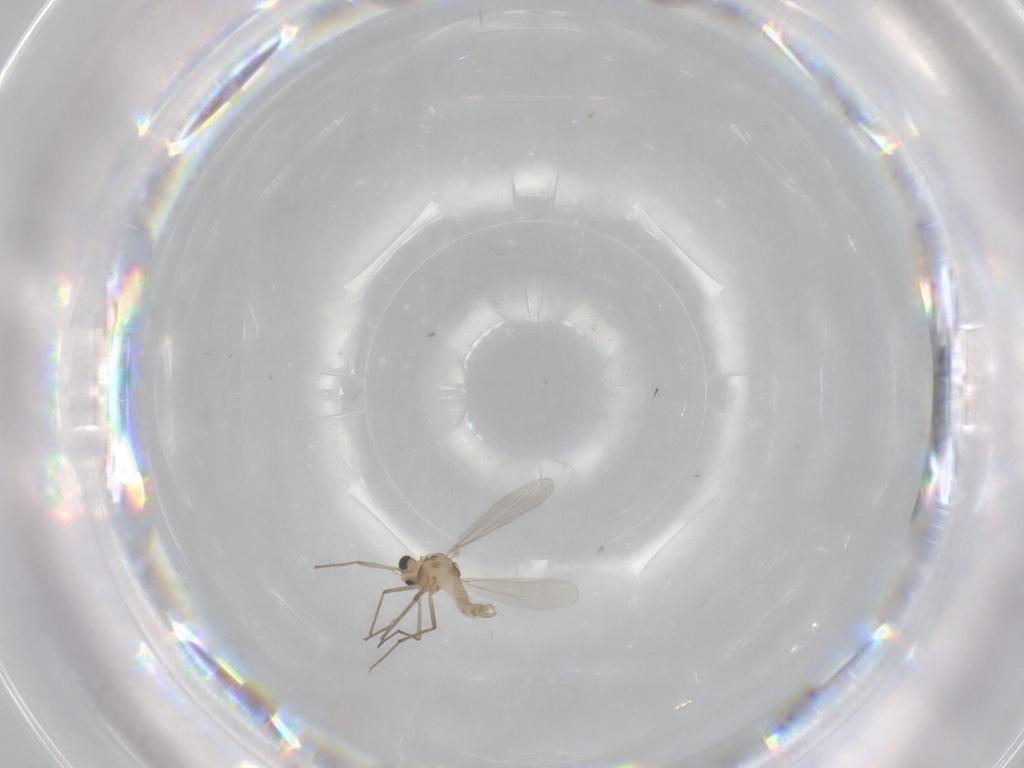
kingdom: Animalia
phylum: Arthropoda
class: Insecta
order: Diptera
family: Chironomidae
